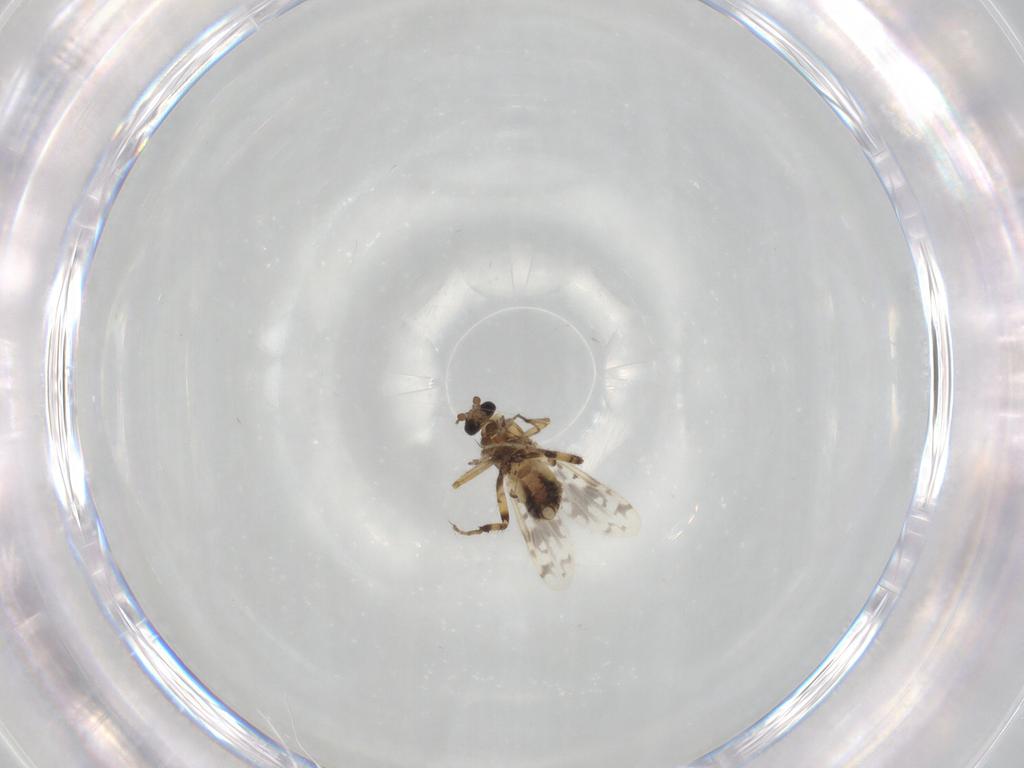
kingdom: Animalia
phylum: Arthropoda
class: Insecta
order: Diptera
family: Ceratopogonidae
